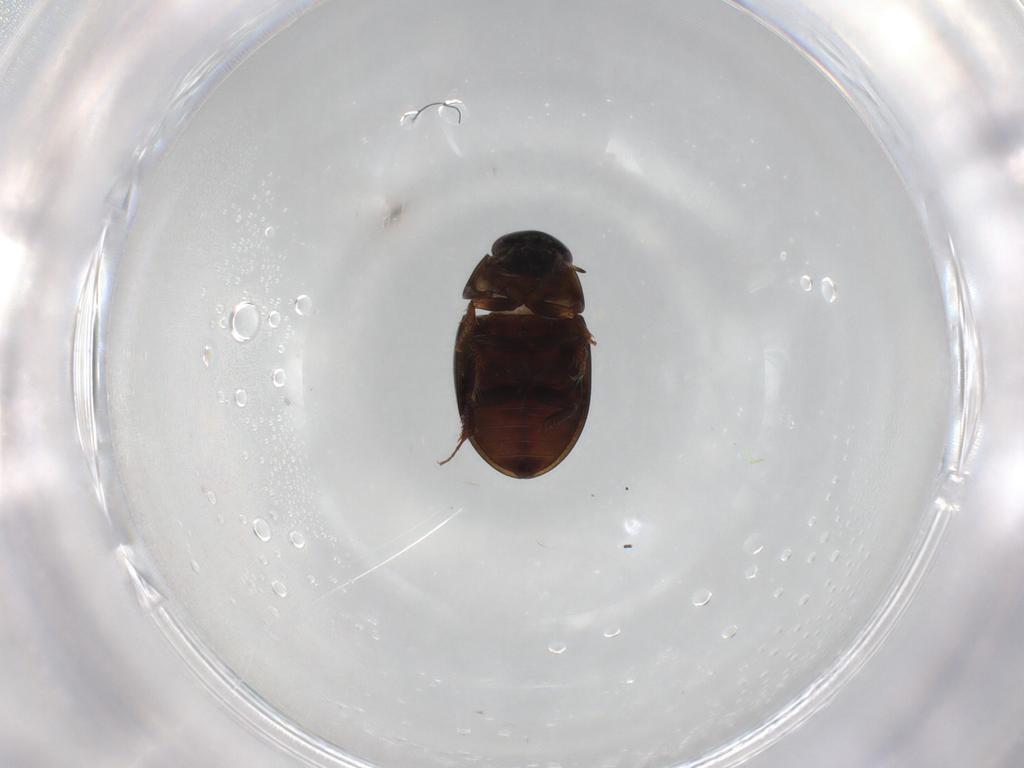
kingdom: Animalia
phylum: Arthropoda
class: Insecta
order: Coleoptera
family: Hydrophilidae
